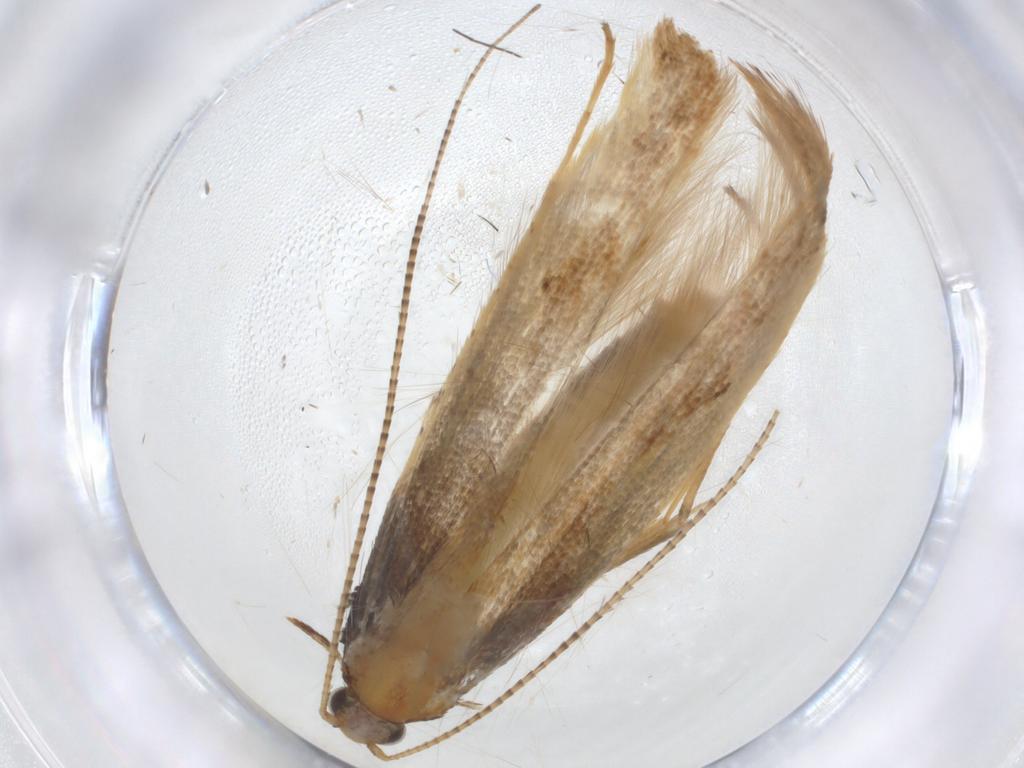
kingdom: Animalia
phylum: Arthropoda
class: Insecta
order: Lepidoptera
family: Gracillariidae
